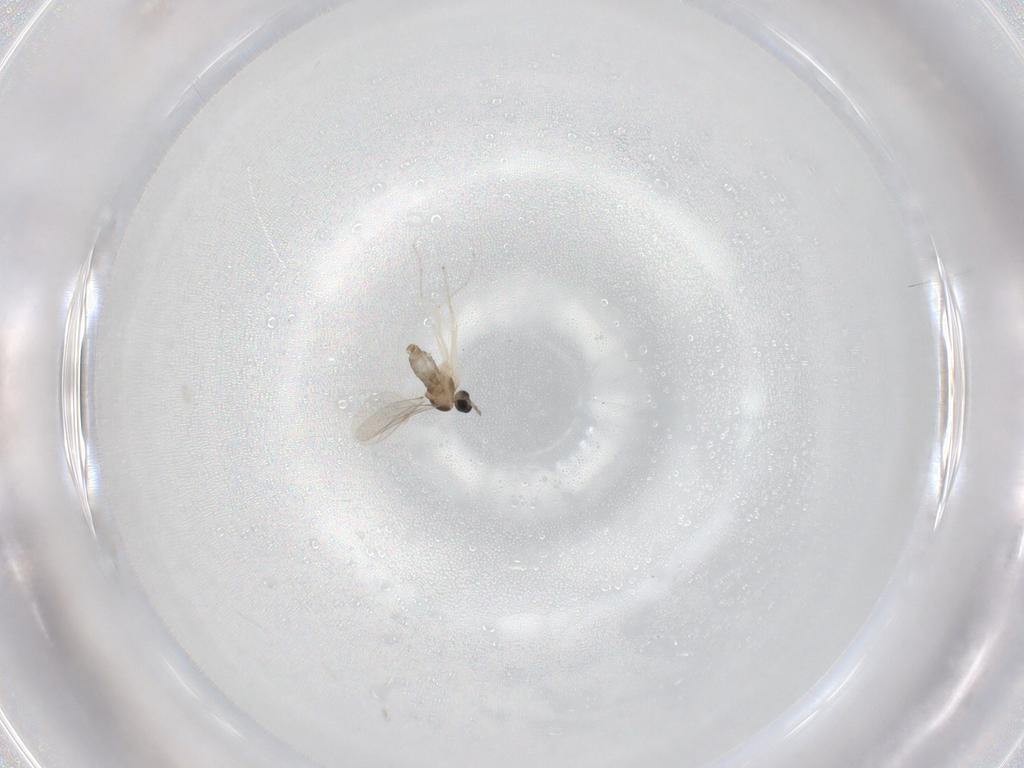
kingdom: Animalia
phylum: Arthropoda
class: Insecta
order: Diptera
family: Cecidomyiidae
